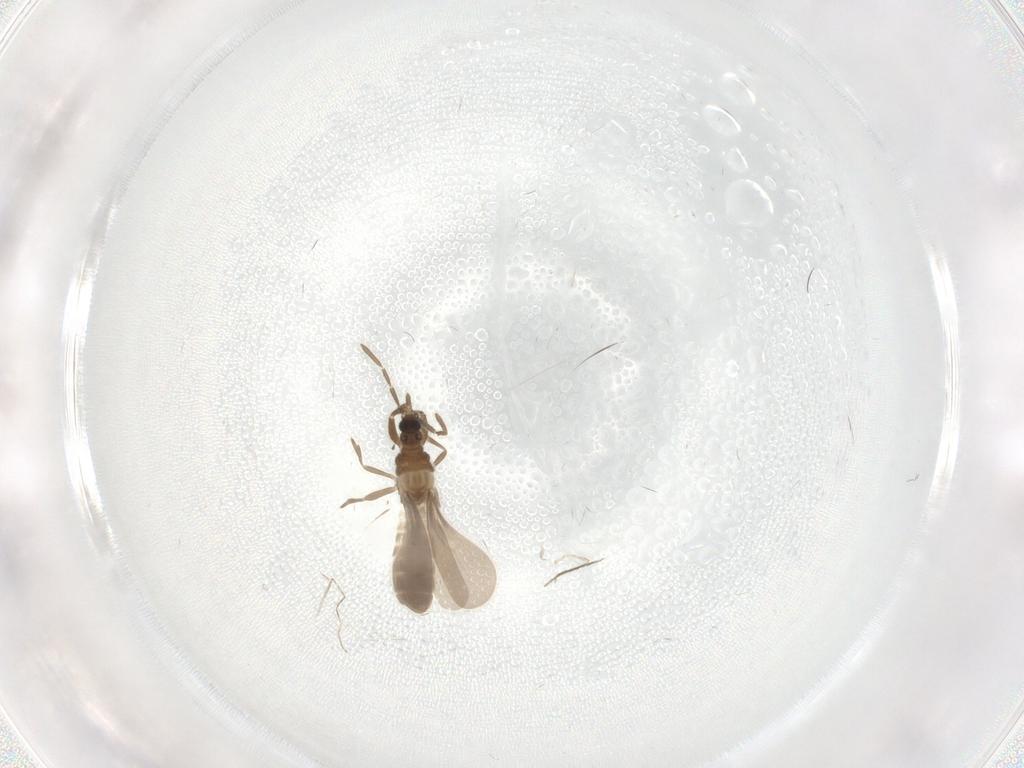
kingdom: Animalia
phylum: Arthropoda
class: Insecta
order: Hemiptera
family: Enicocephalidae
